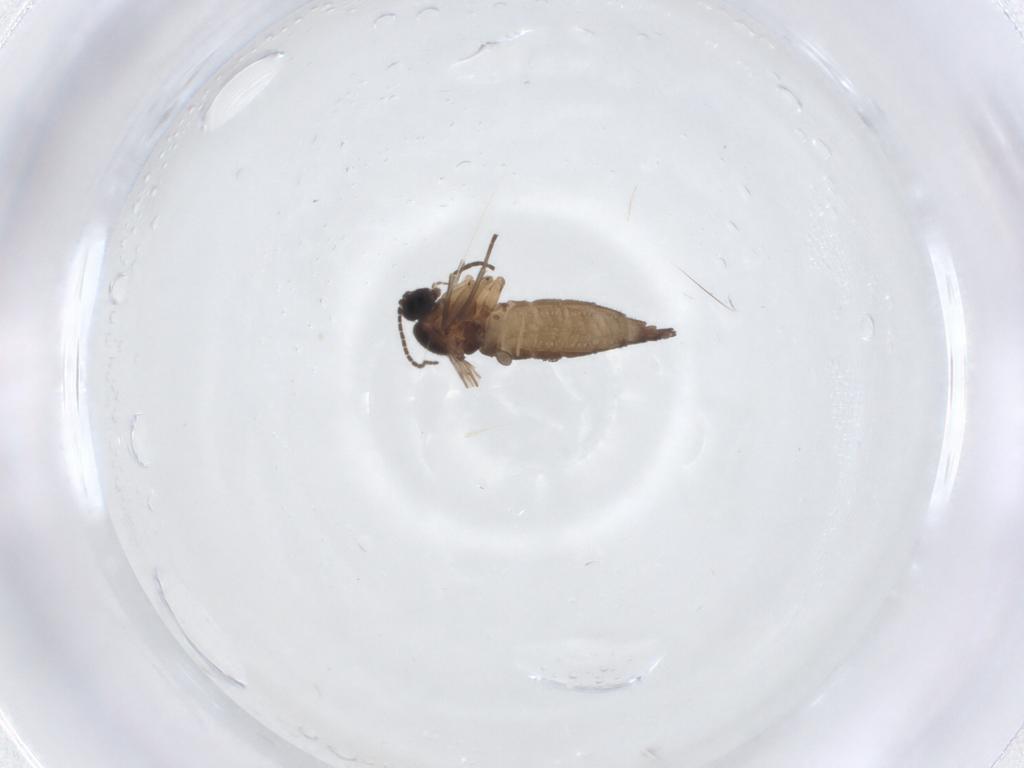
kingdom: Animalia
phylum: Arthropoda
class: Insecta
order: Diptera
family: Sciaridae
